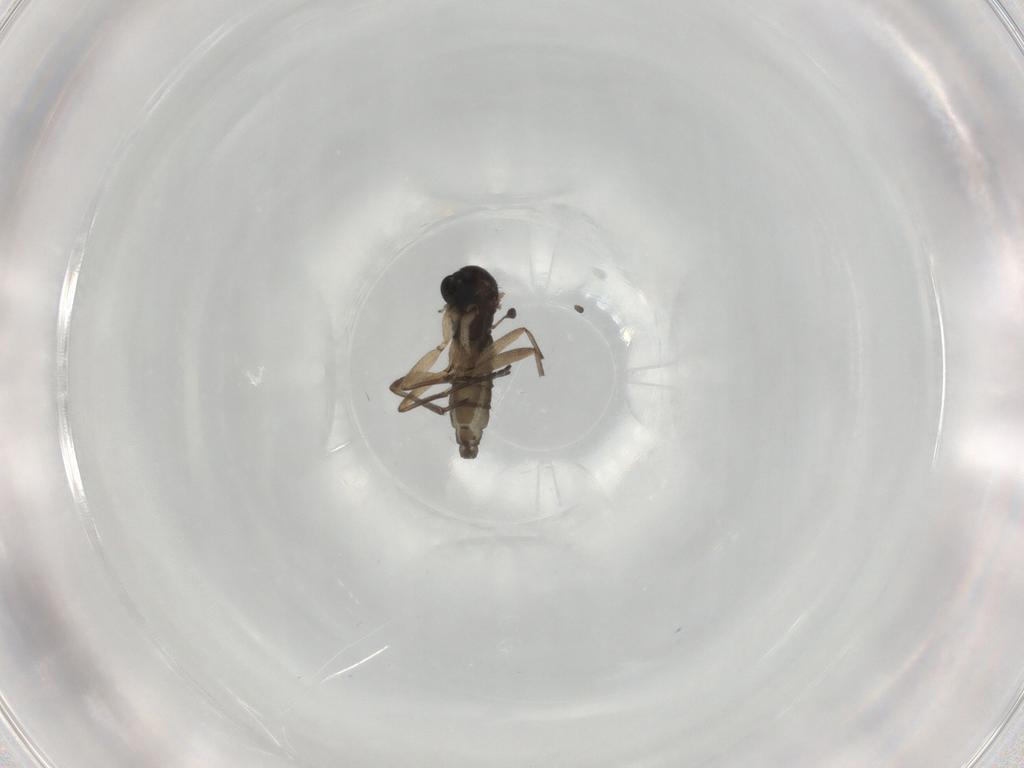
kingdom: Animalia
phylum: Arthropoda
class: Insecta
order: Diptera
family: Sciaridae
